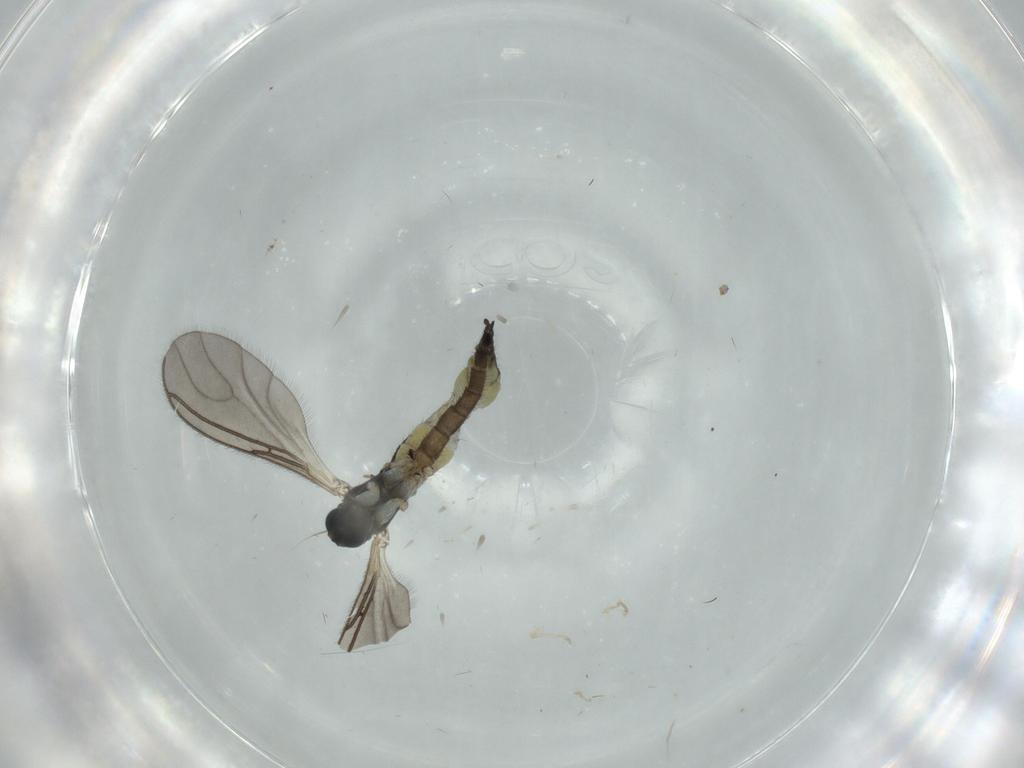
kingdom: Animalia
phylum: Arthropoda
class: Insecta
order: Diptera
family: Sciaridae
